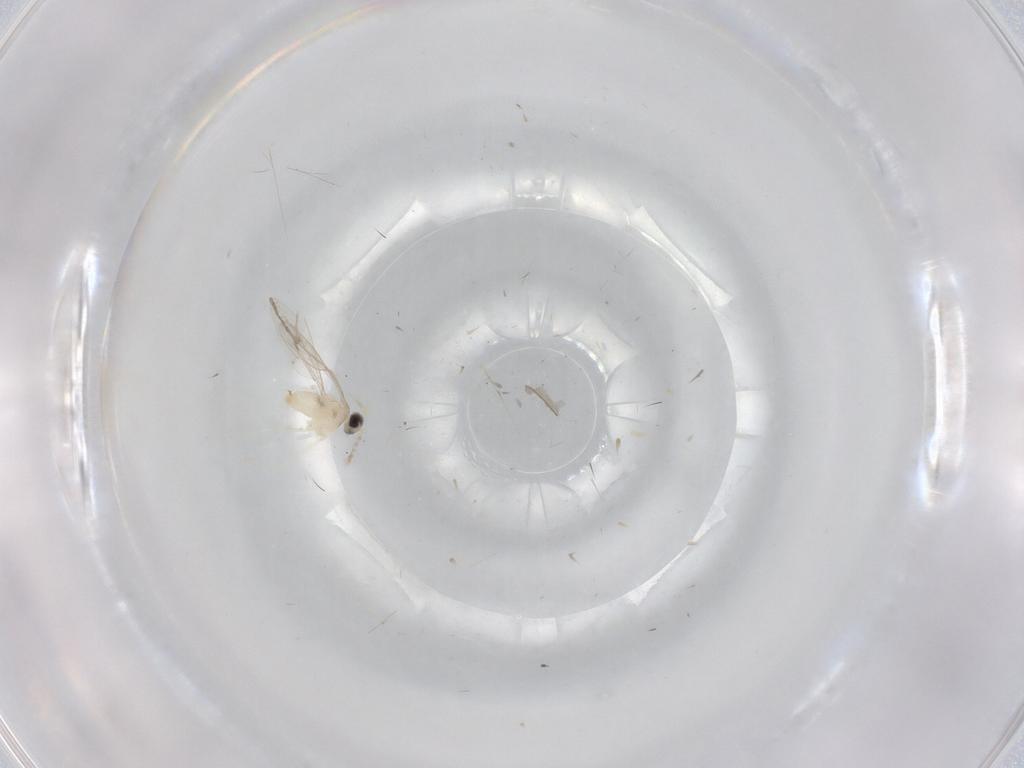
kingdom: Animalia
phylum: Arthropoda
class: Insecta
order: Diptera
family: Cecidomyiidae
